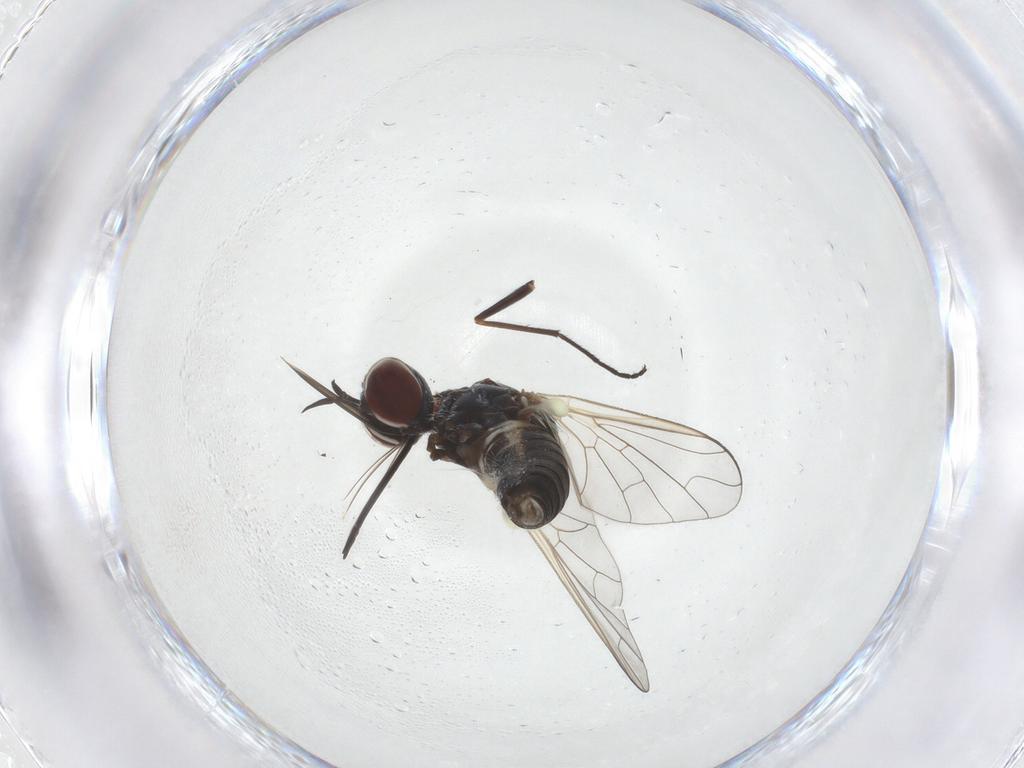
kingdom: Animalia
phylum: Arthropoda
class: Insecta
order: Diptera
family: Bombyliidae
